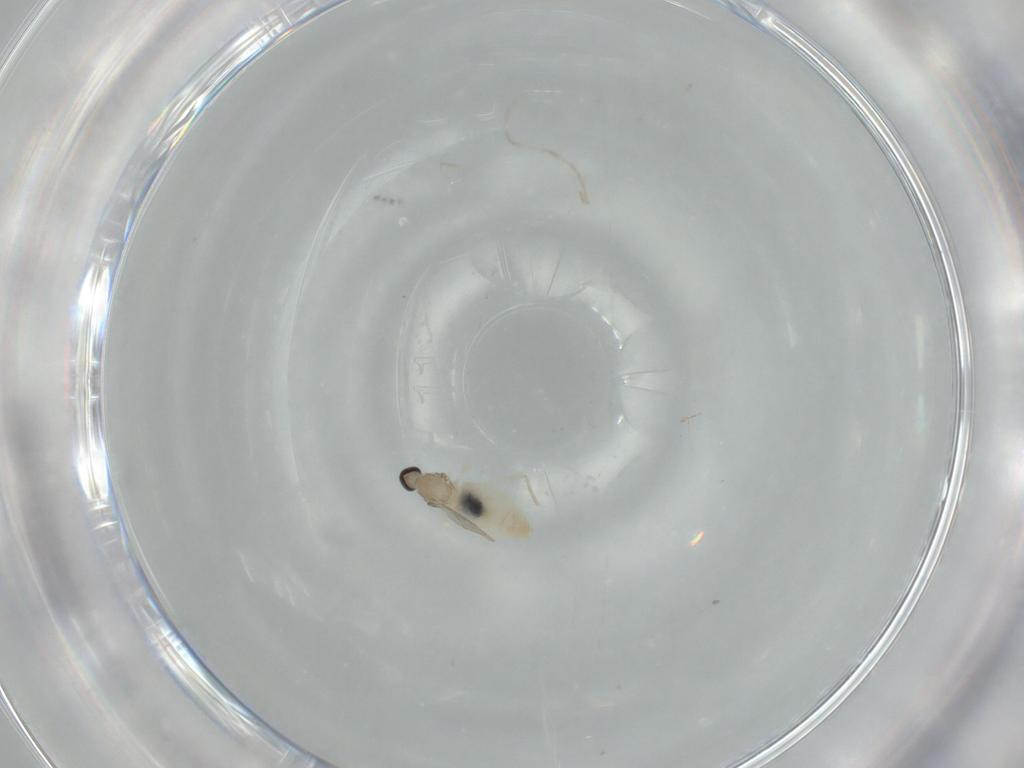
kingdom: Animalia
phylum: Arthropoda
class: Insecta
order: Diptera
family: Cecidomyiidae
